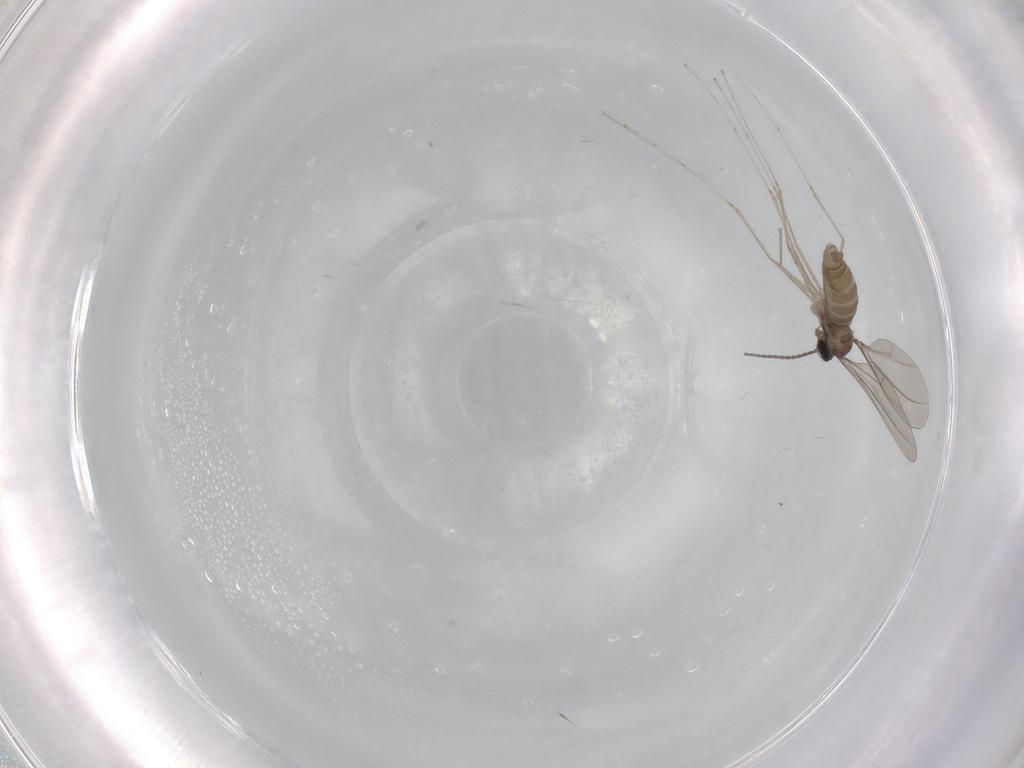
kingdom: Animalia
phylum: Arthropoda
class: Insecta
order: Diptera
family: Cecidomyiidae
